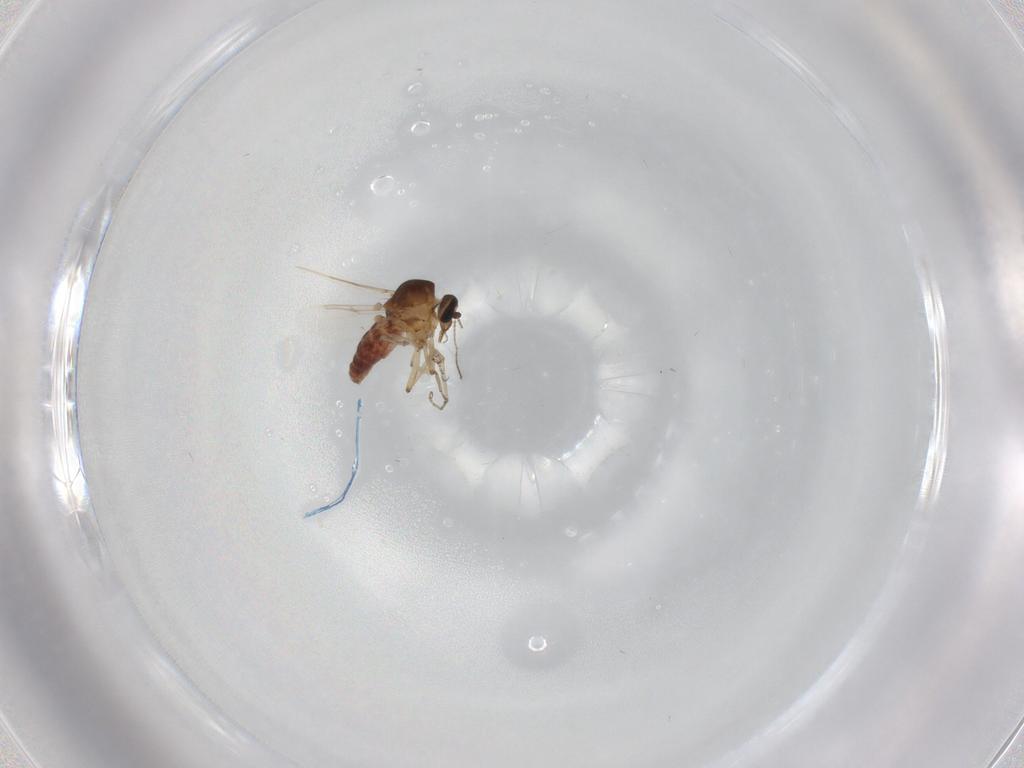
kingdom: Animalia
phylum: Arthropoda
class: Insecta
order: Diptera
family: Ceratopogonidae
